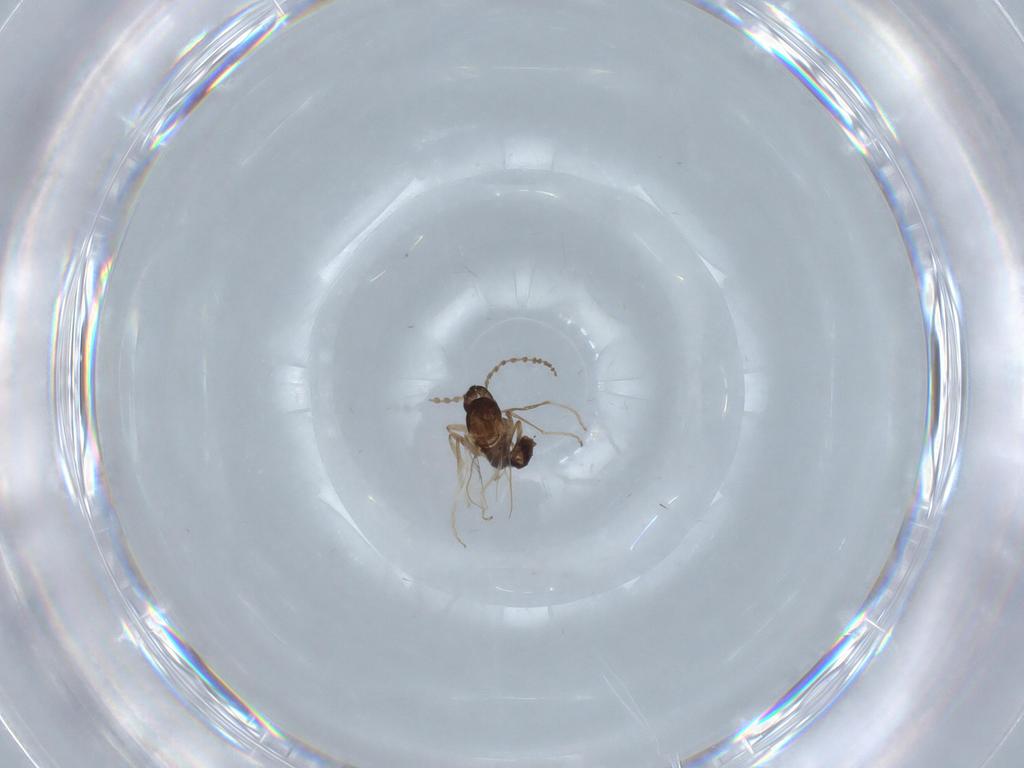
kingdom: Animalia
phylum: Arthropoda
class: Insecta
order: Diptera
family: Cecidomyiidae
